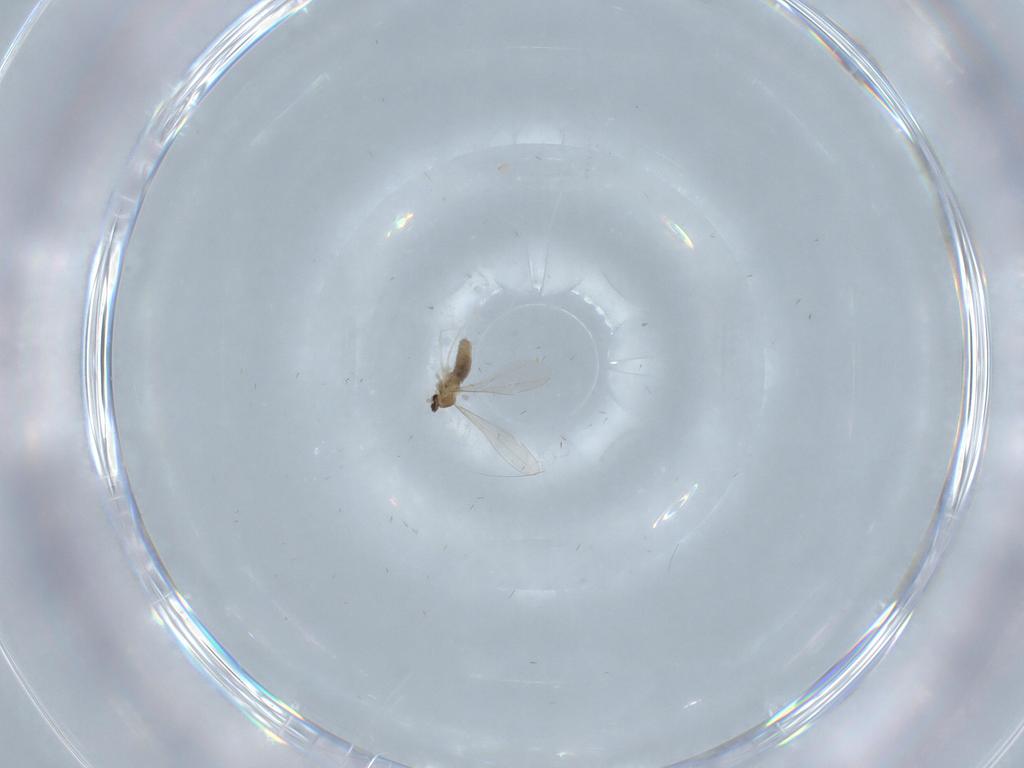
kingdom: Animalia
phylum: Arthropoda
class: Insecta
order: Diptera
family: Cecidomyiidae
